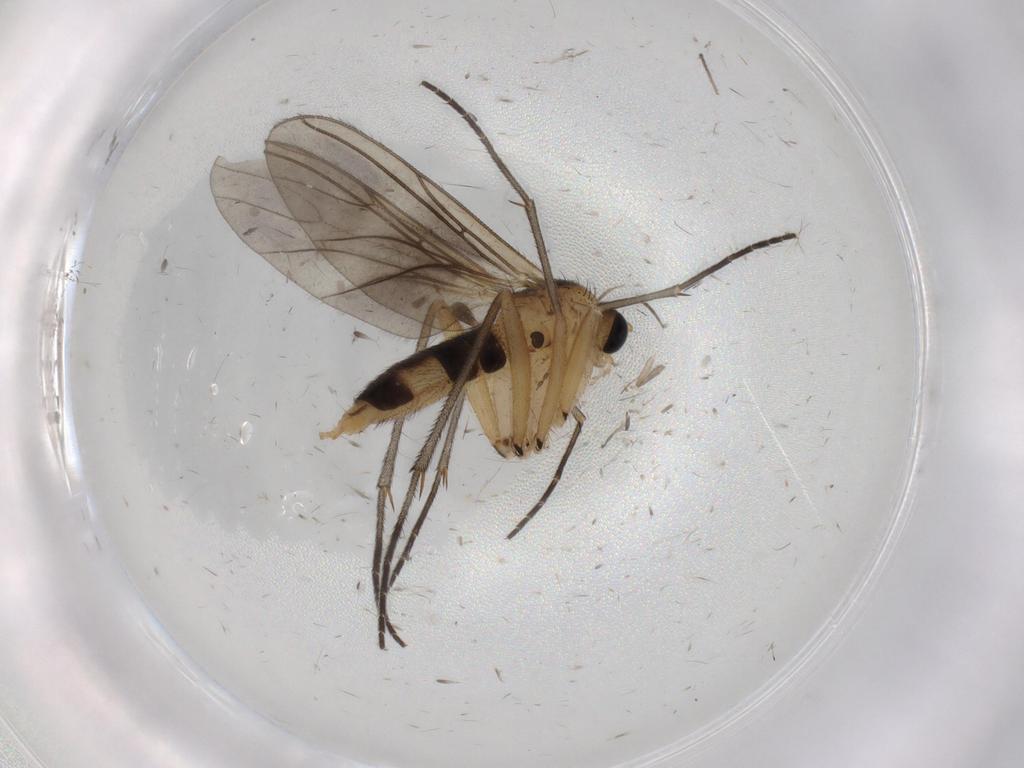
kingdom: Animalia
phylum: Arthropoda
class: Insecta
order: Diptera
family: Sciaridae
